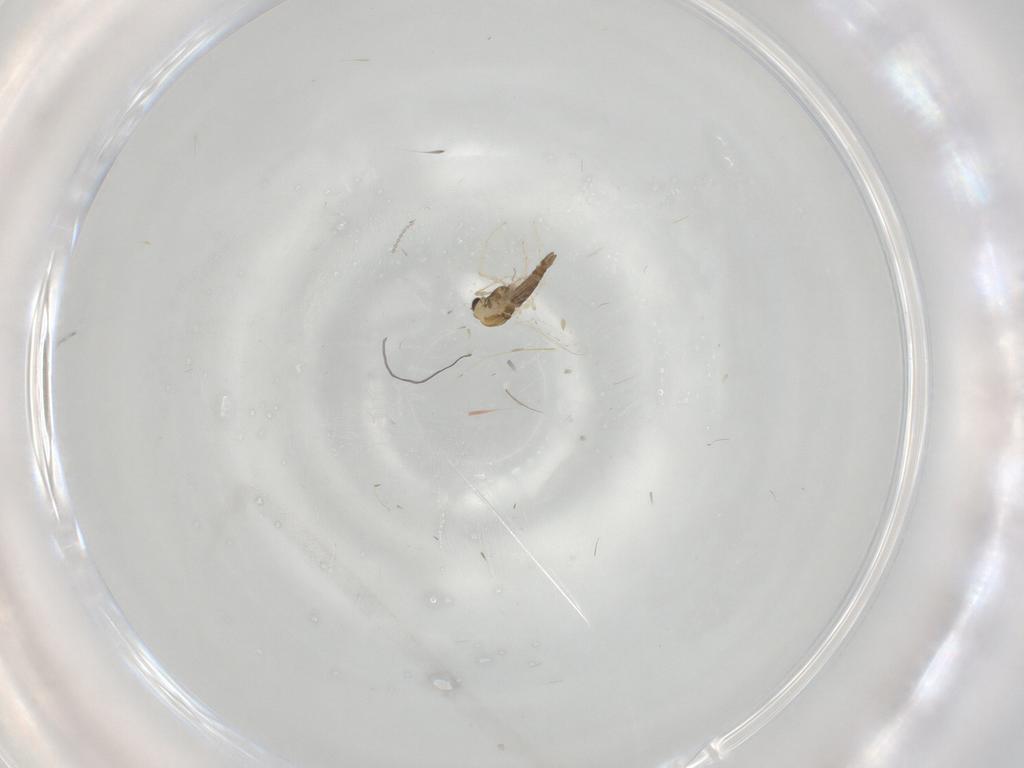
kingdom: Animalia
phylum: Arthropoda
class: Insecta
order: Diptera
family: Cecidomyiidae
